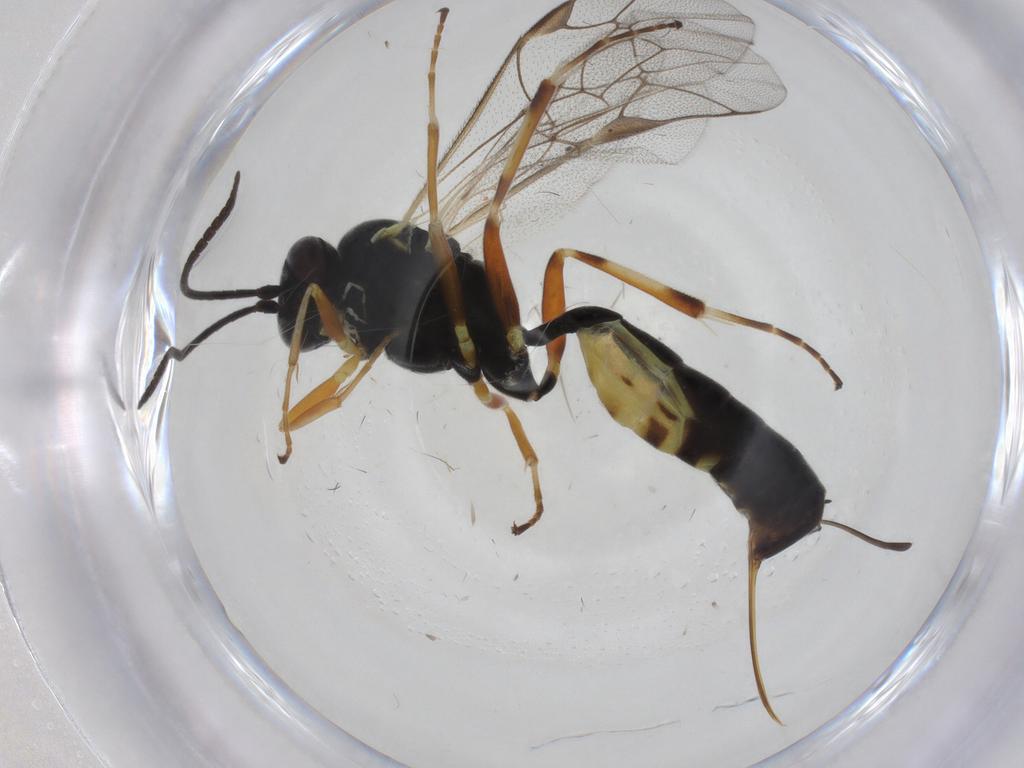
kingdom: Animalia
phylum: Arthropoda
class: Insecta
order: Hymenoptera
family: Ichneumonidae
